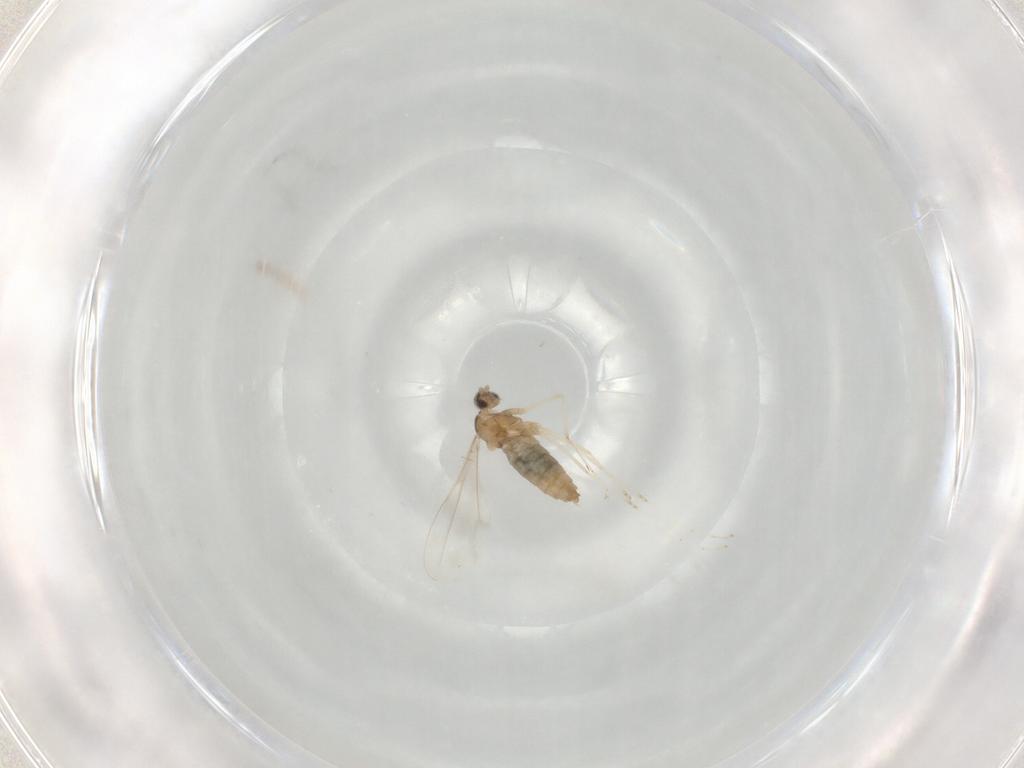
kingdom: Animalia
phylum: Arthropoda
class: Insecta
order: Diptera
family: Cecidomyiidae
